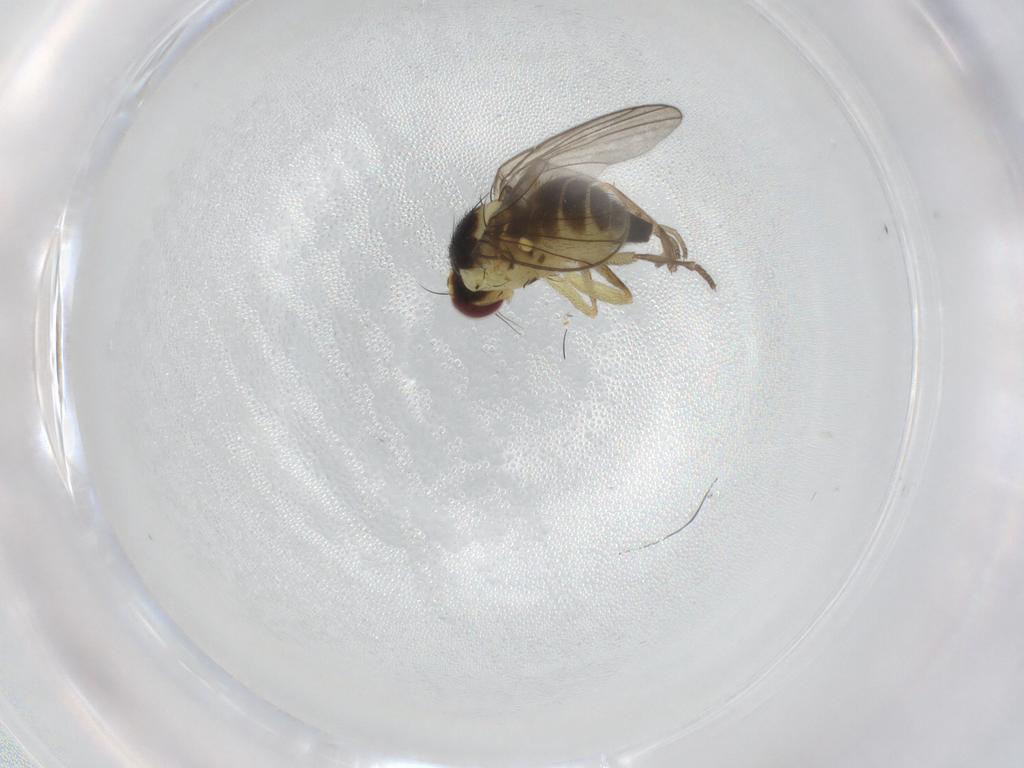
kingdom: Animalia
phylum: Arthropoda
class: Insecta
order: Diptera
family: Agromyzidae
